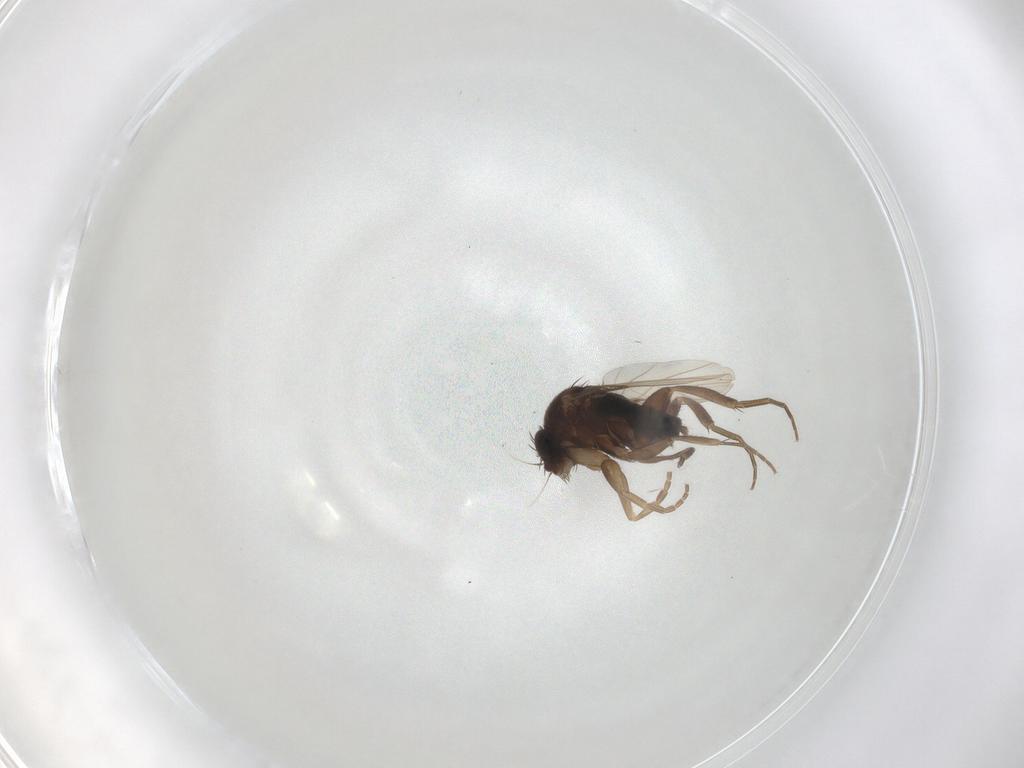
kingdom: Animalia
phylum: Arthropoda
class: Insecta
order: Diptera
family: Phoridae
